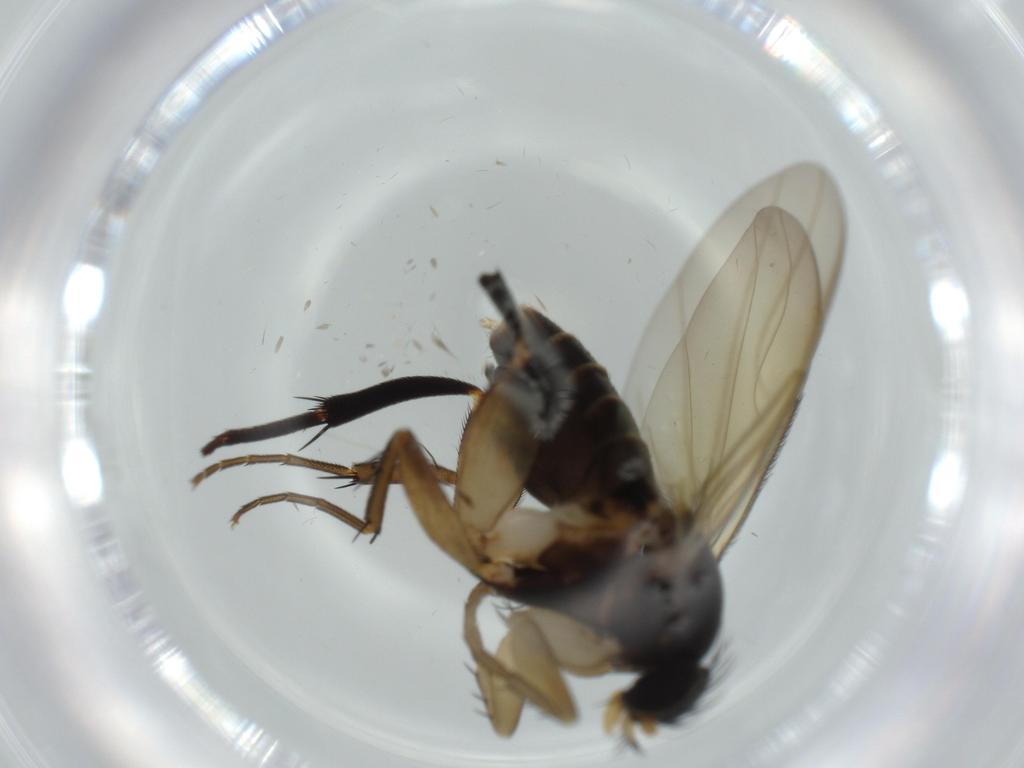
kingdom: Animalia
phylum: Arthropoda
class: Insecta
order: Diptera
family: Phoridae
